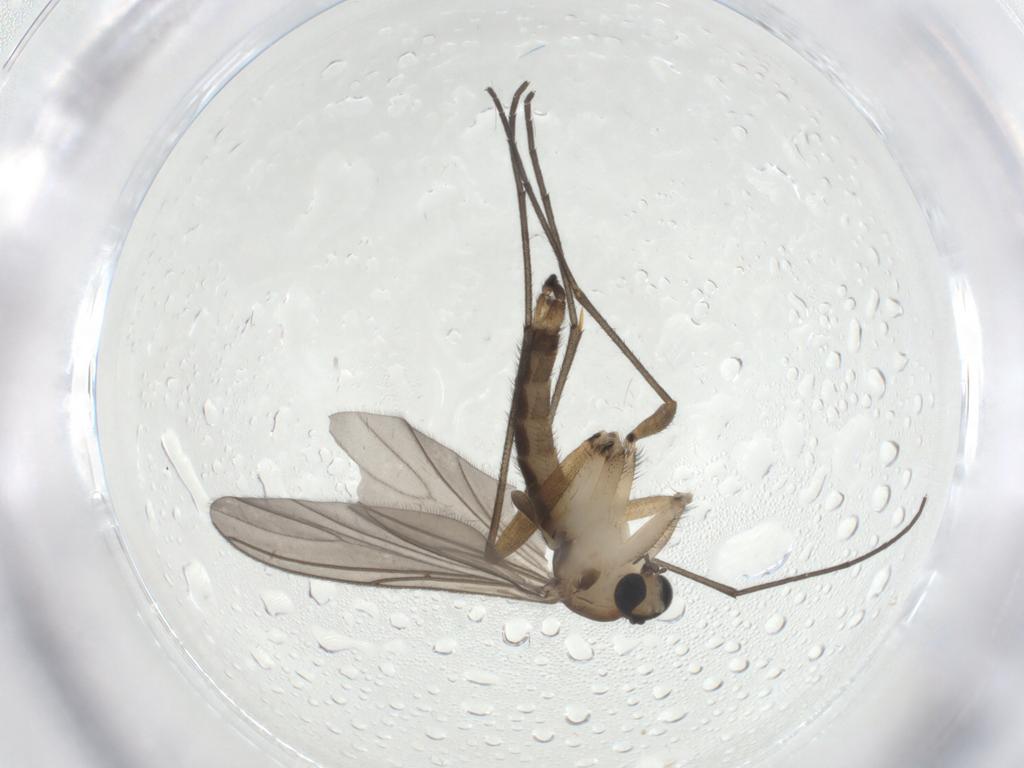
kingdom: Animalia
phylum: Arthropoda
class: Insecta
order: Diptera
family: Sciaridae
